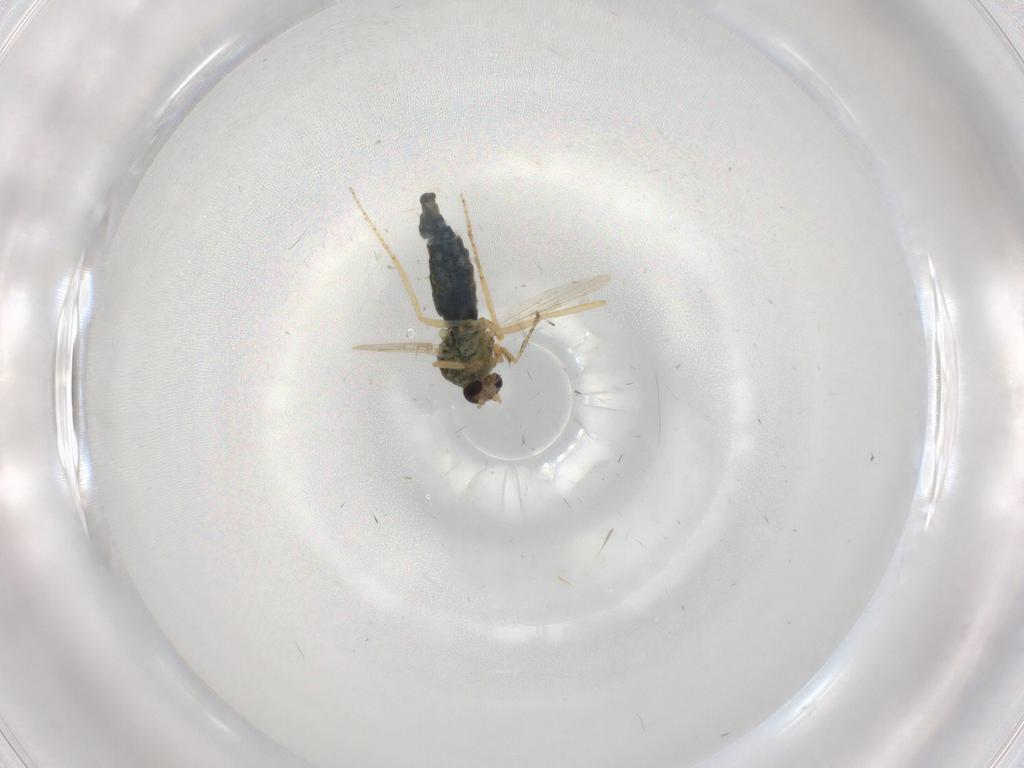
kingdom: Animalia
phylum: Arthropoda
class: Insecta
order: Diptera
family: Ceratopogonidae
